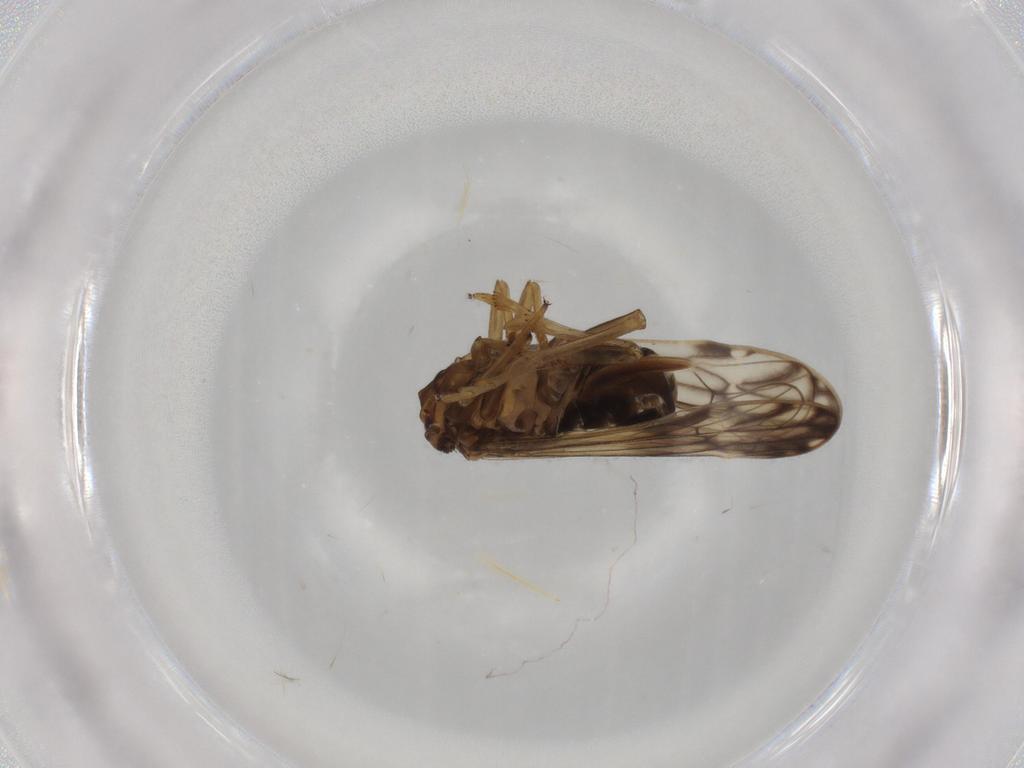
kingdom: Animalia
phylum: Arthropoda
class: Insecta
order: Hemiptera
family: Delphacidae
